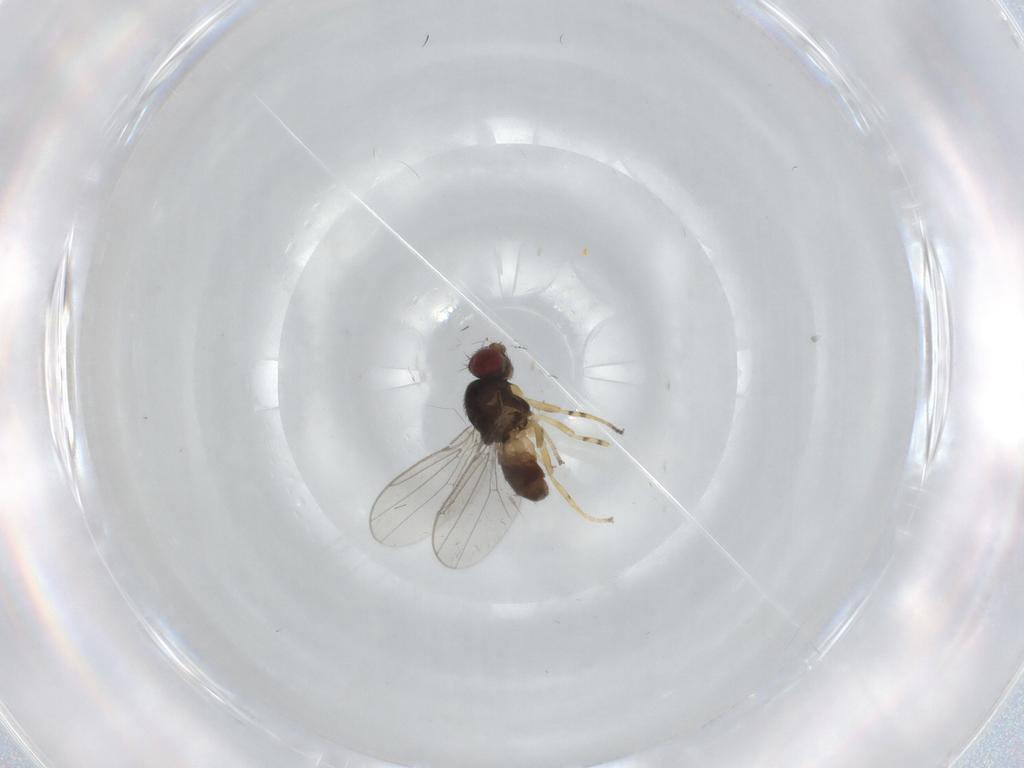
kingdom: Animalia
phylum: Arthropoda
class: Insecta
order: Diptera
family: Chloropidae
